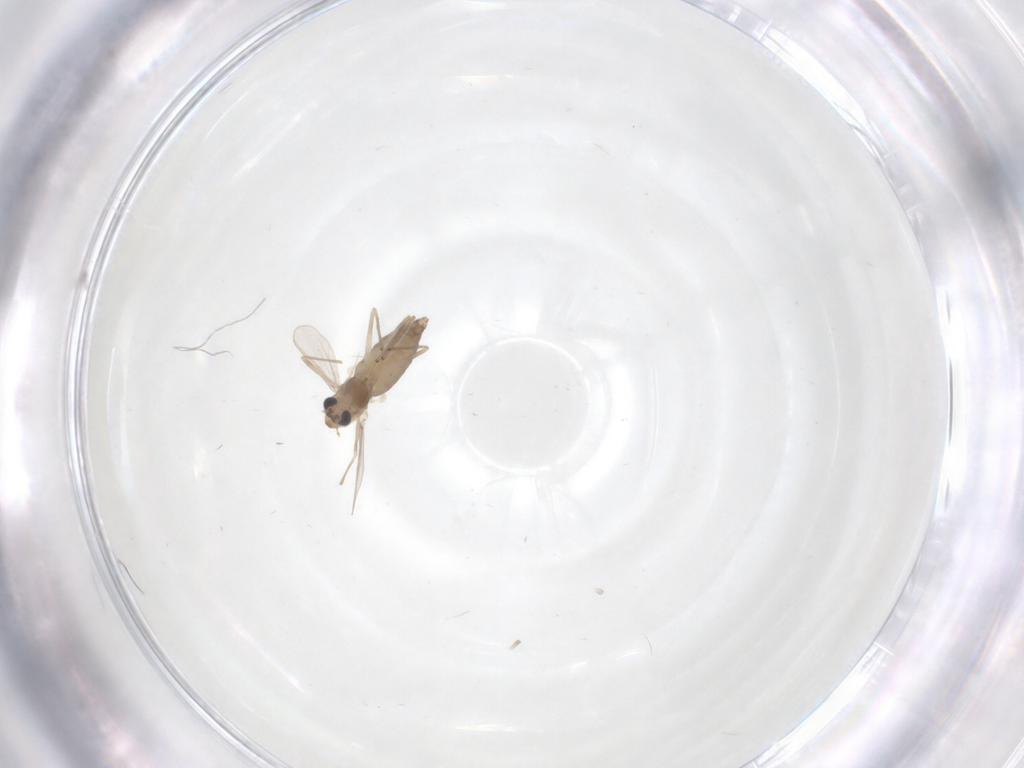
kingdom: Animalia
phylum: Arthropoda
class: Insecta
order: Diptera
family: Chironomidae
